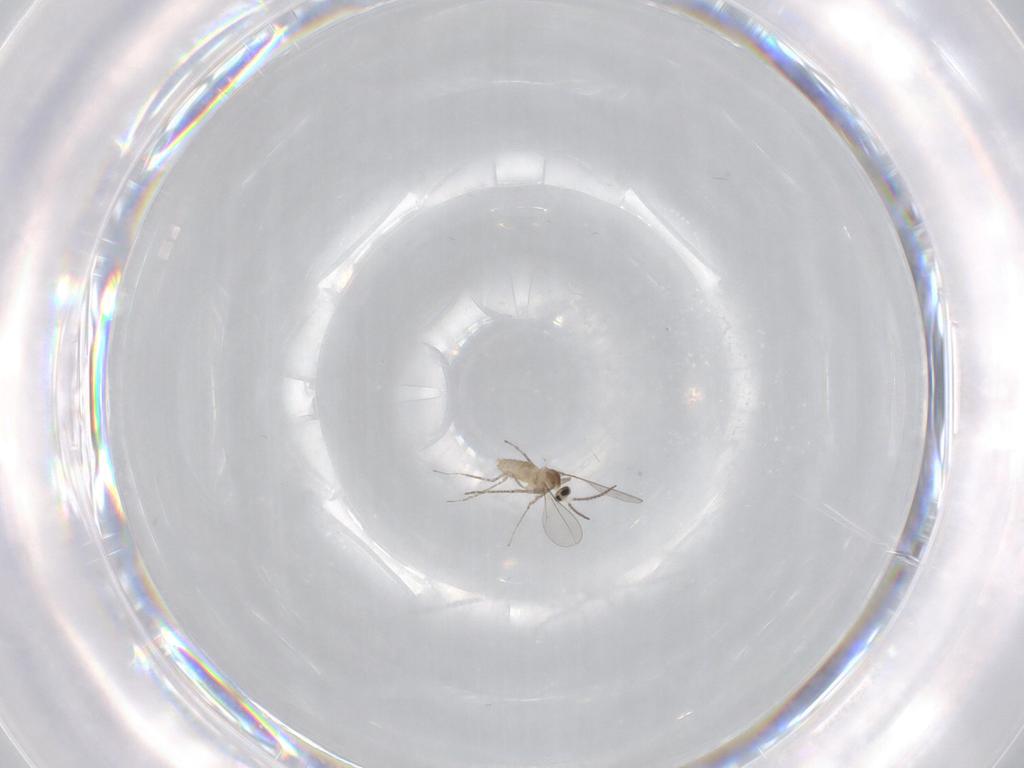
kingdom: Animalia
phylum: Arthropoda
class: Insecta
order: Diptera
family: Cecidomyiidae
